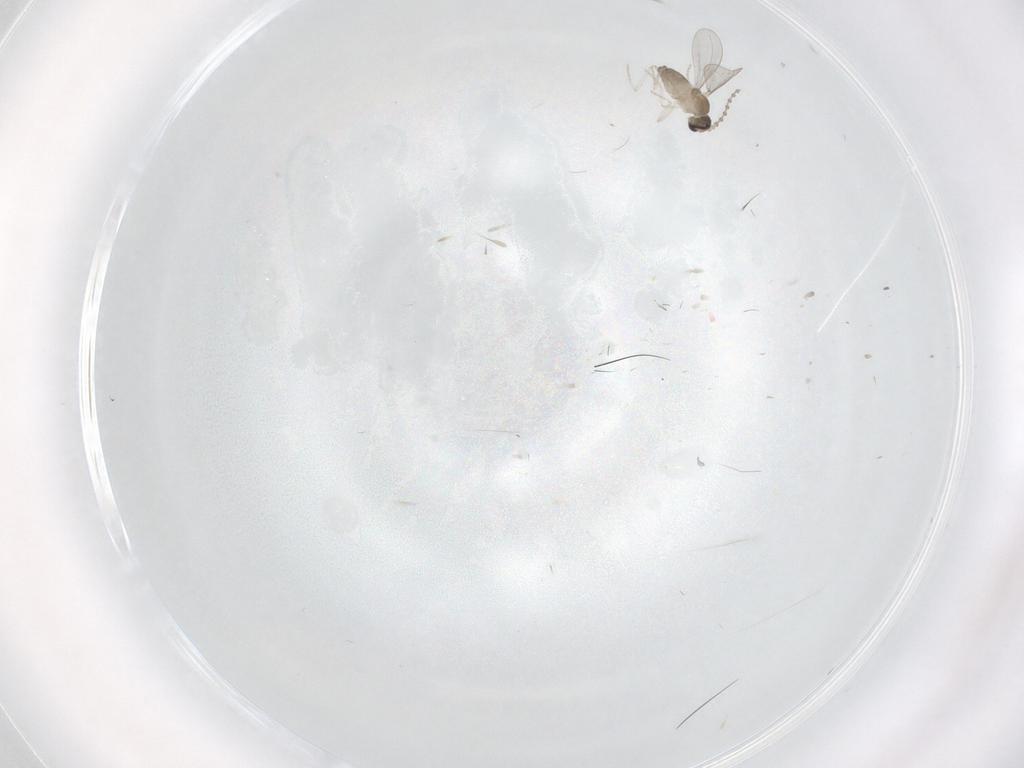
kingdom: Animalia
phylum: Arthropoda
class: Insecta
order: Diptera
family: Cecidomyiidae
